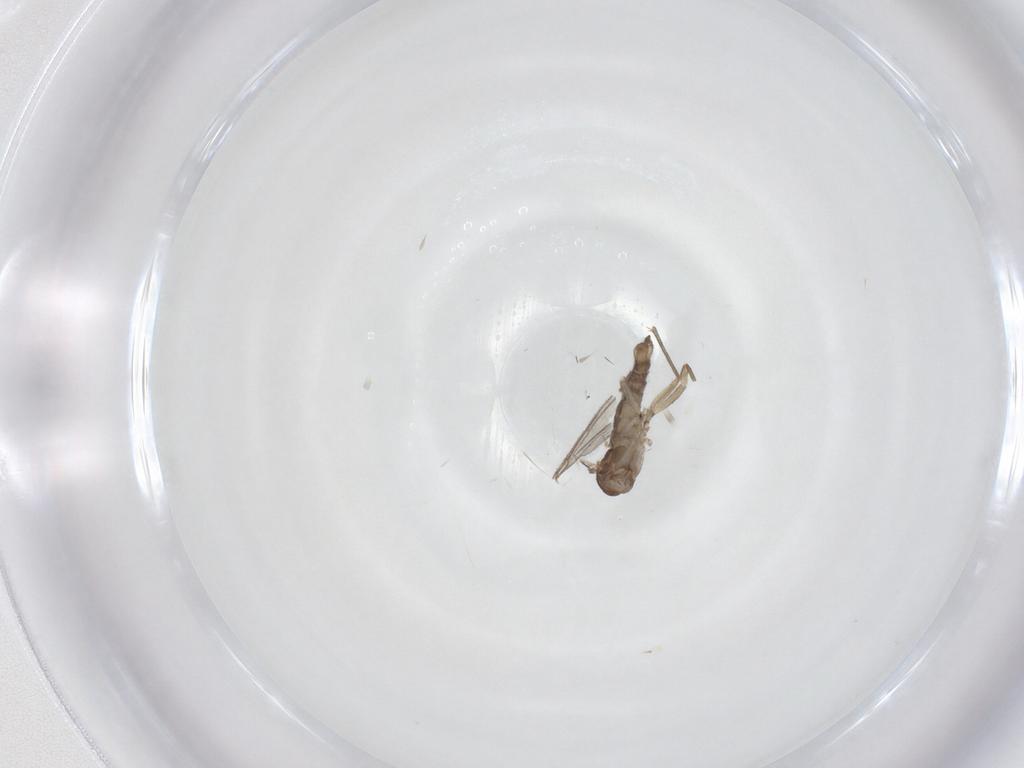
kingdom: Animalia
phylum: Arthropoda
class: Insecta
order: Diptera
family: Sciaridae
